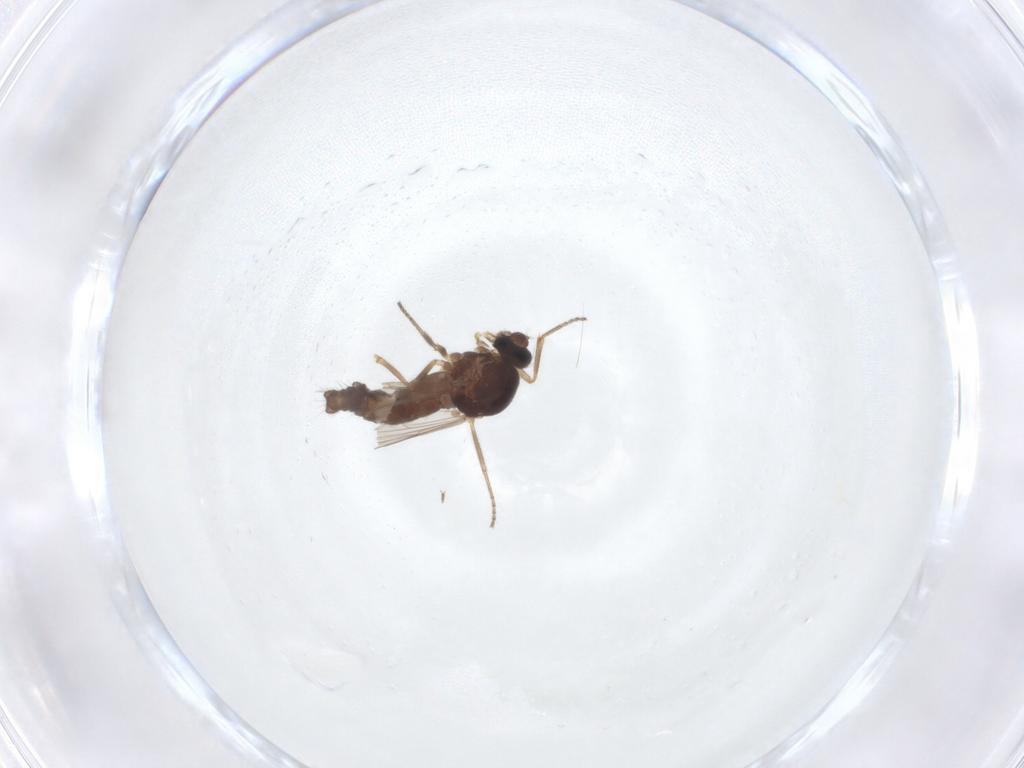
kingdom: Animalia
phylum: Arthropoda
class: Insecta
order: Diptera
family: Ceratopogonidae
